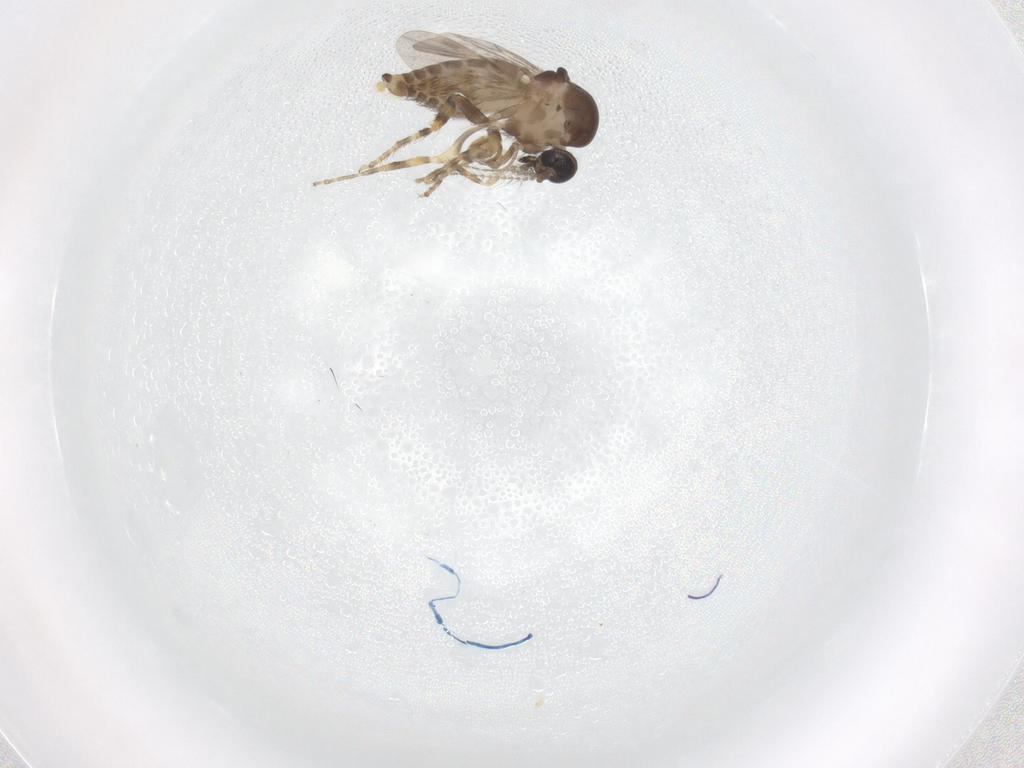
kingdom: Animalia
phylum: Arthropoda
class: Insecta
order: Diptera
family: Ceratopogonidae
